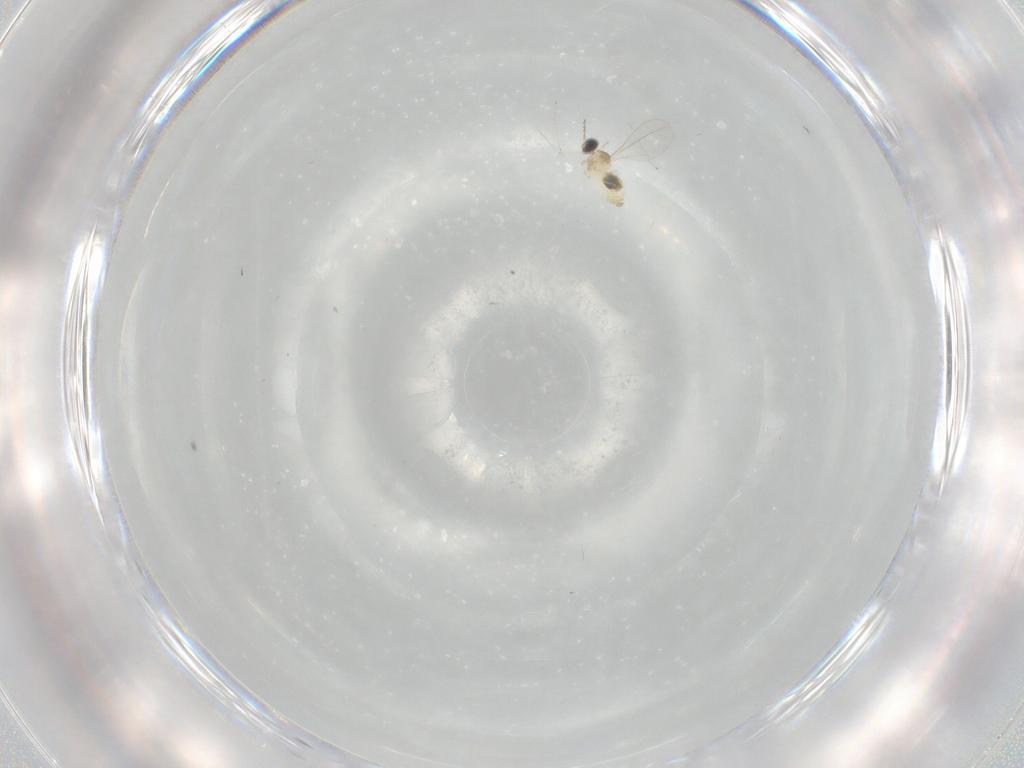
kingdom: Animalia
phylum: Arthropoda
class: Insecta
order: Diptera
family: Cecidomyiidae
